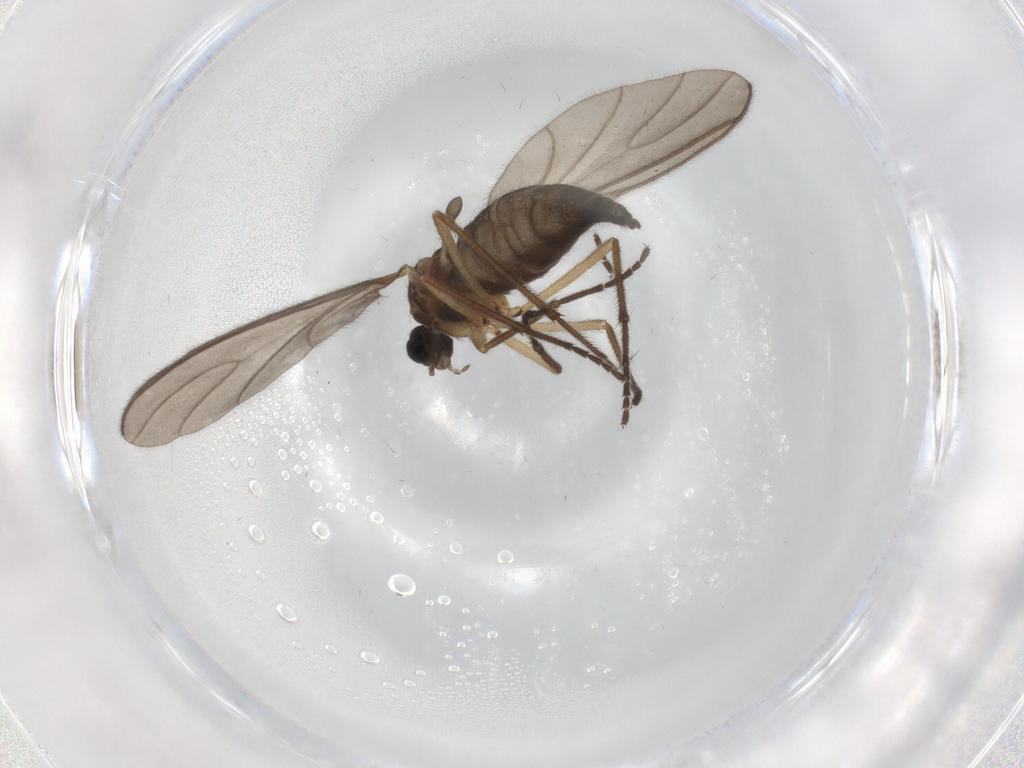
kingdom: Animalia
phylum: Arthropoda
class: Insecta
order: Diptera
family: Sciaridae
